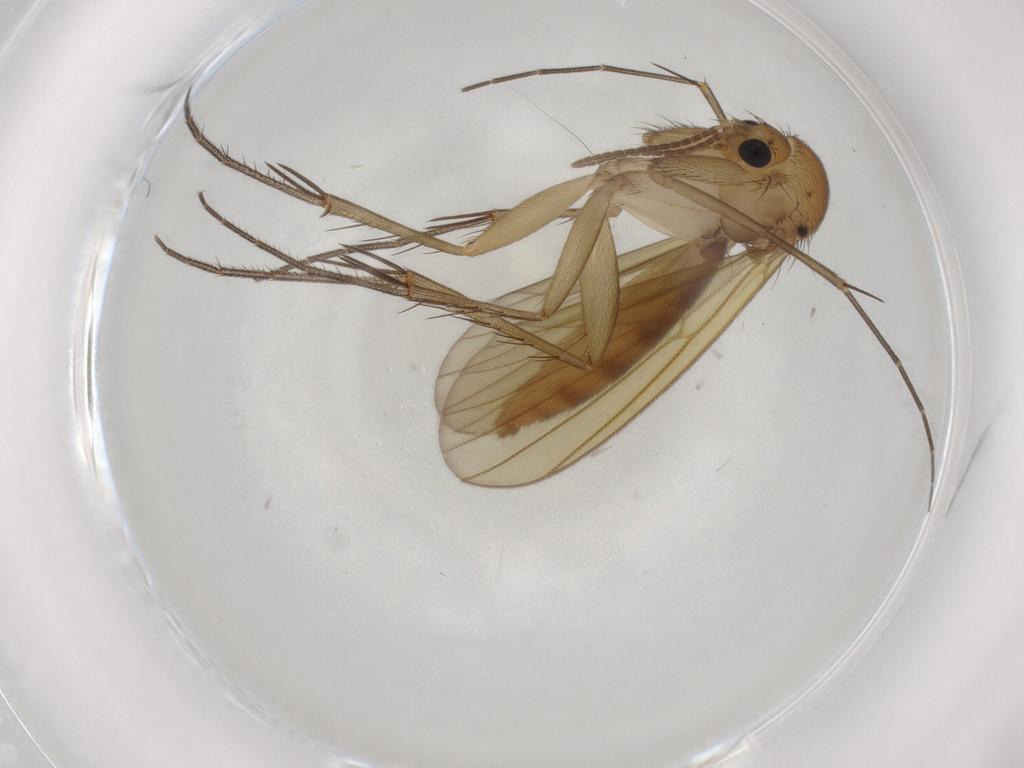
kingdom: Animalia
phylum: Arthropoda
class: Insecta
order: Diptera
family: Mycetophilidae
